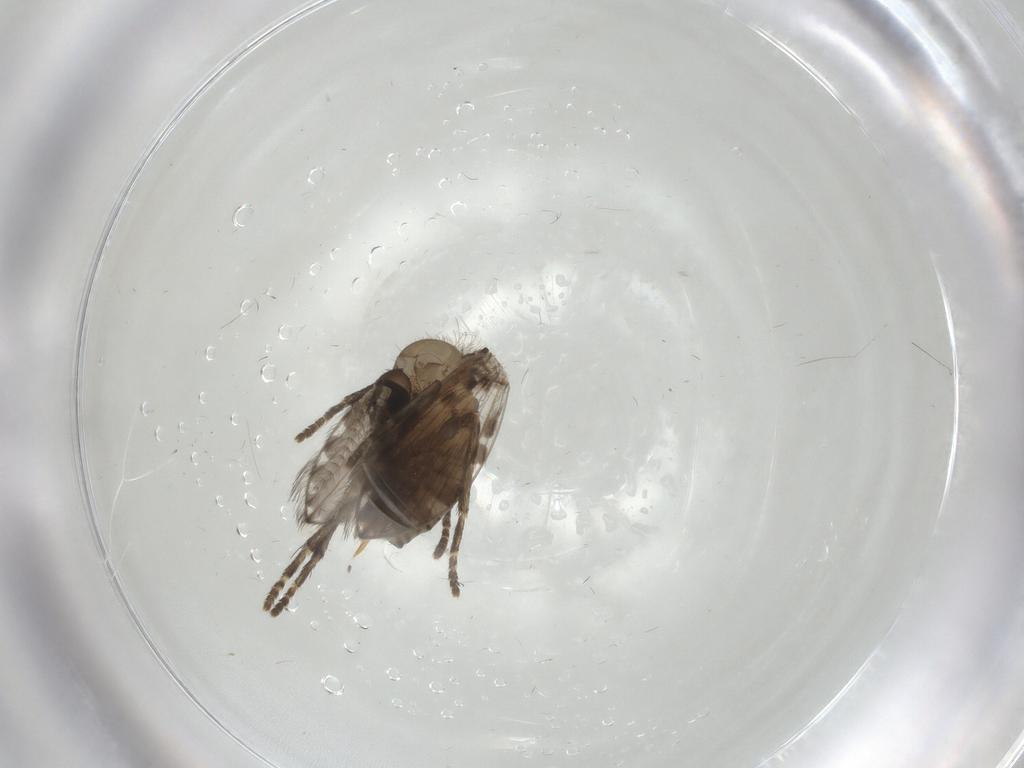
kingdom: Animalia
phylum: Arthropoda
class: Insecta
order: Diptera
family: Psychodidae
